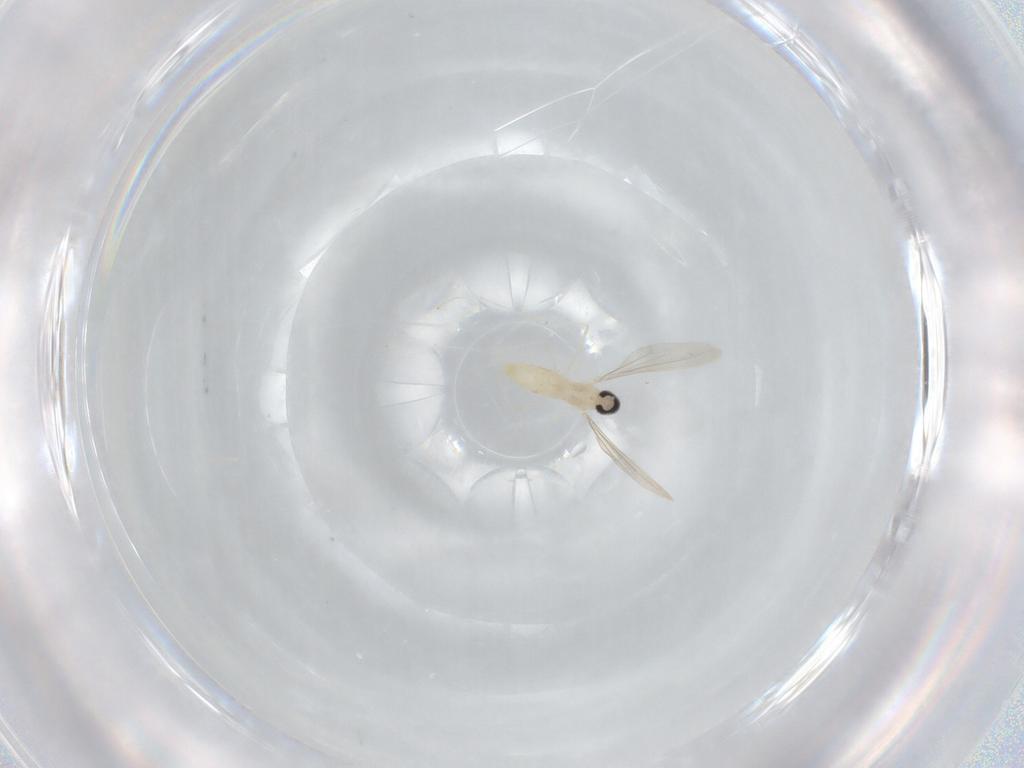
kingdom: Animalia
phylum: Arthropoda
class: Insecta
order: Diptera
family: Cecidomyiidae
